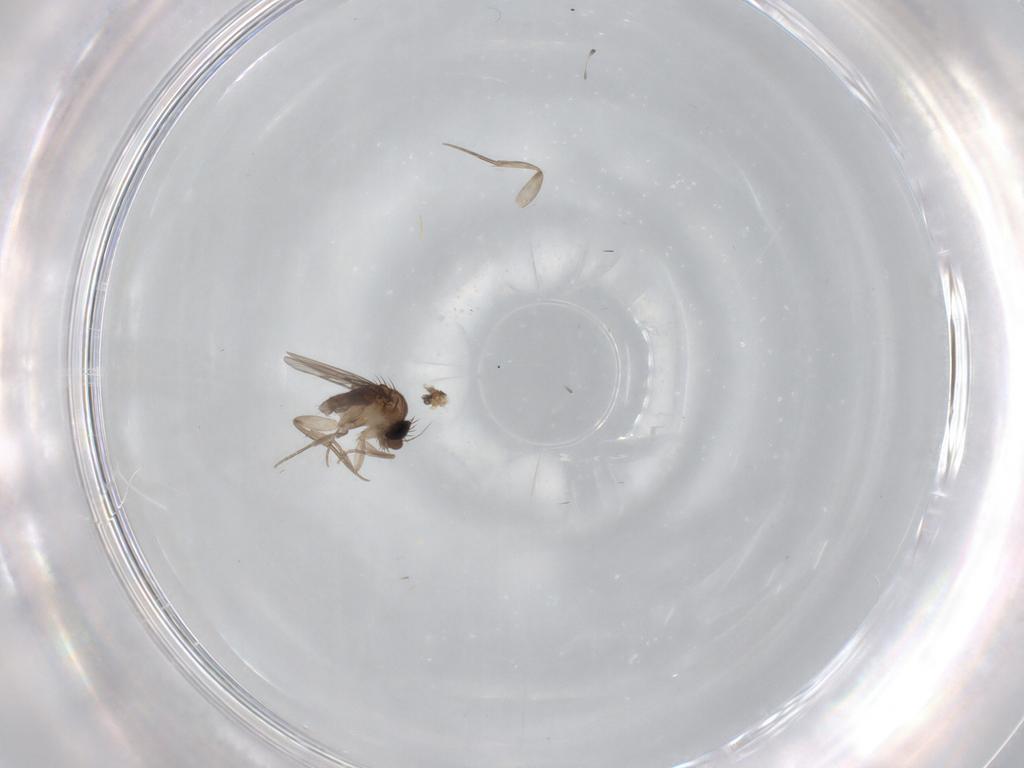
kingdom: Animalia
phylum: Arthropoda
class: Insecta
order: Diptera
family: Phoridae
